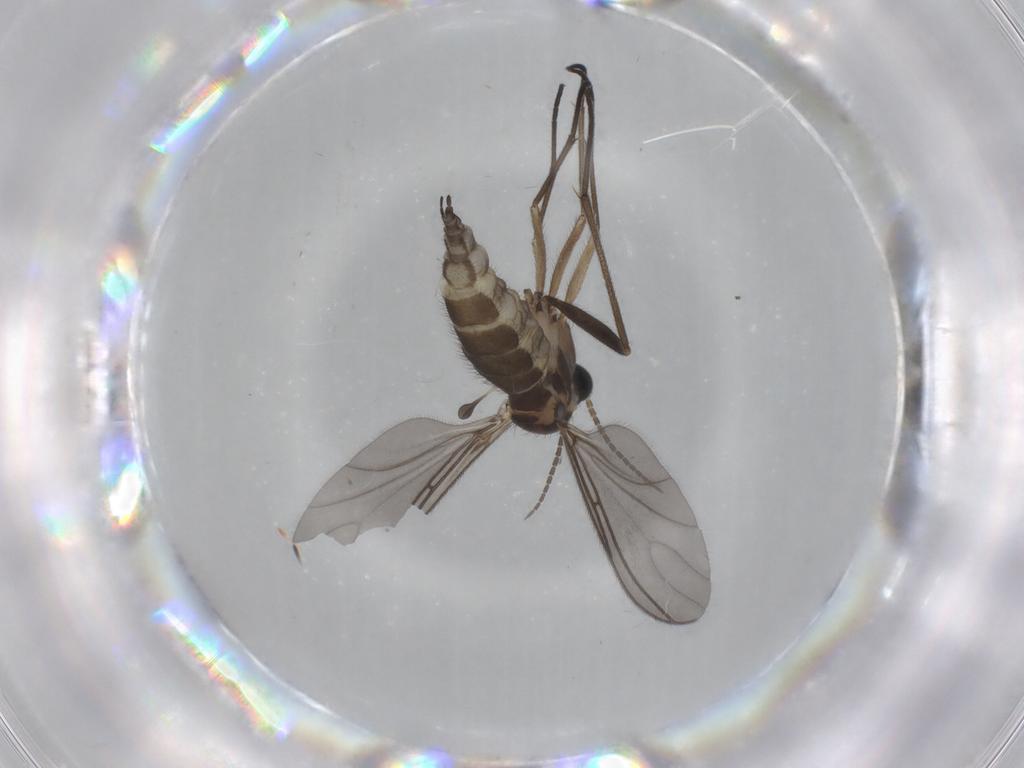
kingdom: Animalia
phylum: Arthropoda
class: Insecta
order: Diptera
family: Sciaridae
